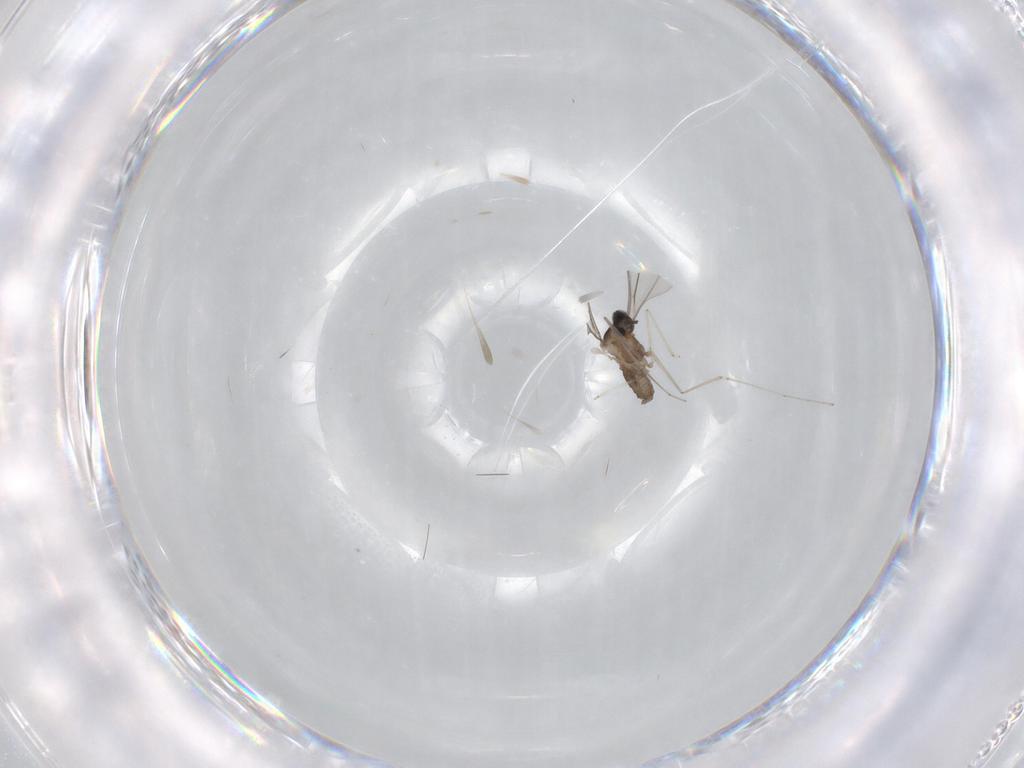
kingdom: Animalia
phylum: Arthropoda
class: Insecta
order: Diptera
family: Cecidomyiidae
